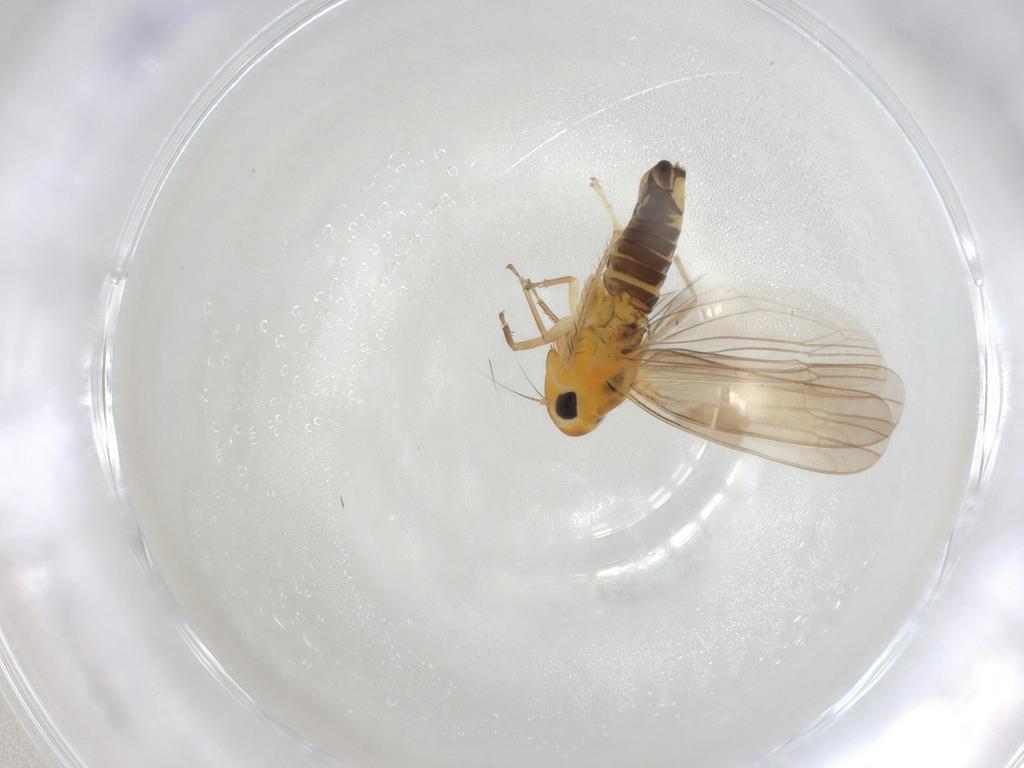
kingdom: Animalia
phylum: Arthropoda
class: Insecta
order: Hemiptera
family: Cicadellidae
